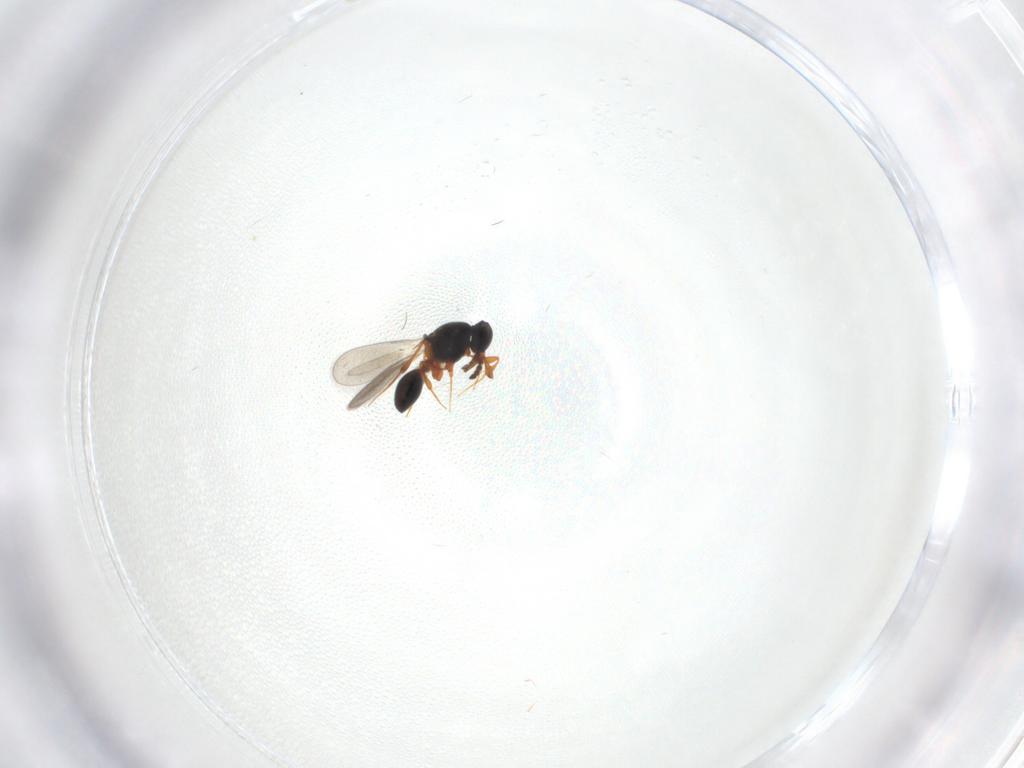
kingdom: Animalia
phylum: Arthropoda
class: Insecta
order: Hymenoptera
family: Platygastridae
